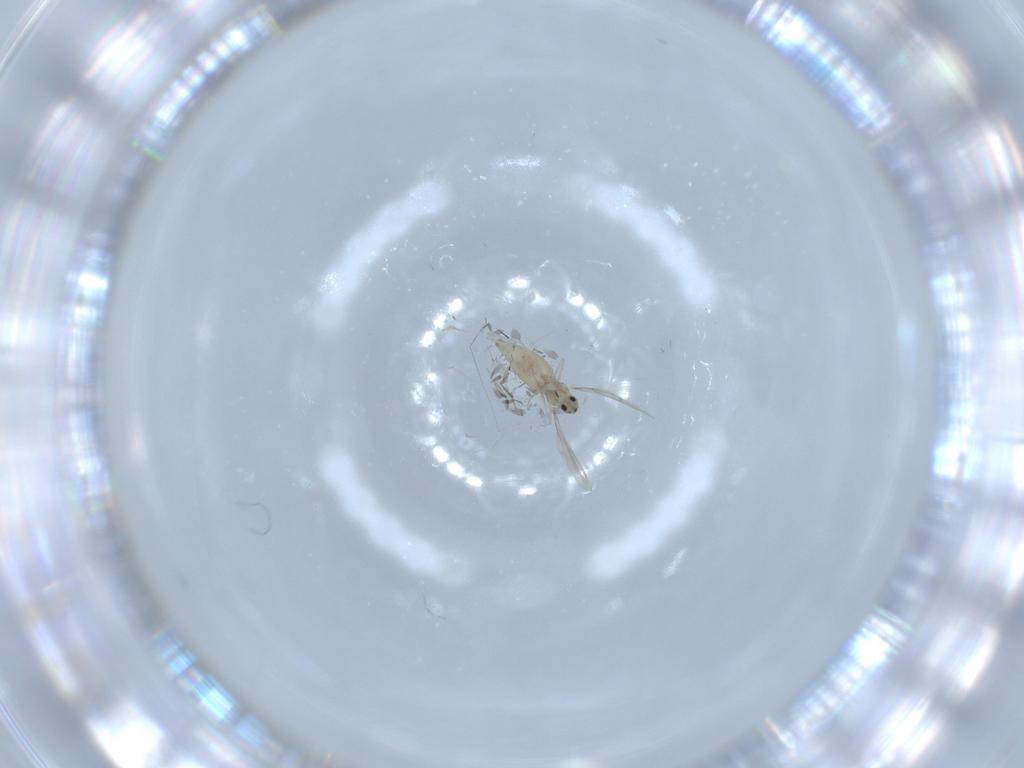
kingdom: Animalia
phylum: Arthropoda
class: Insecta
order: Diptera
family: Cecidomyiidae
